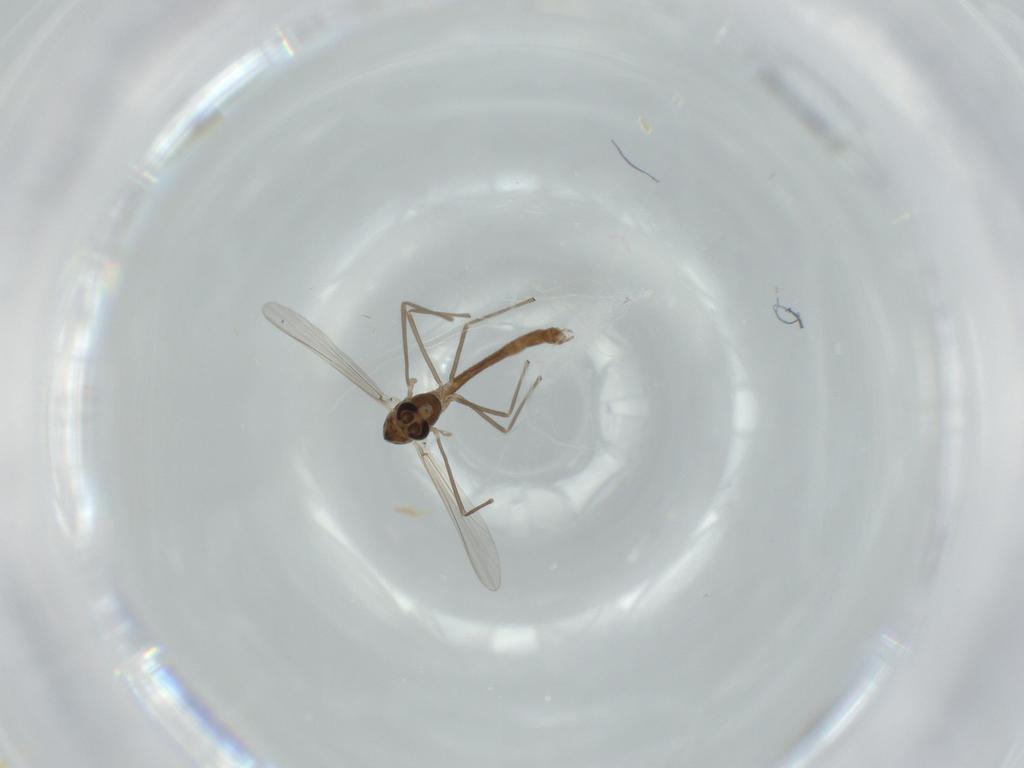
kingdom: Animalia
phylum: Arthropoda
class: Insecta
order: Diptera
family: Chironomidae
